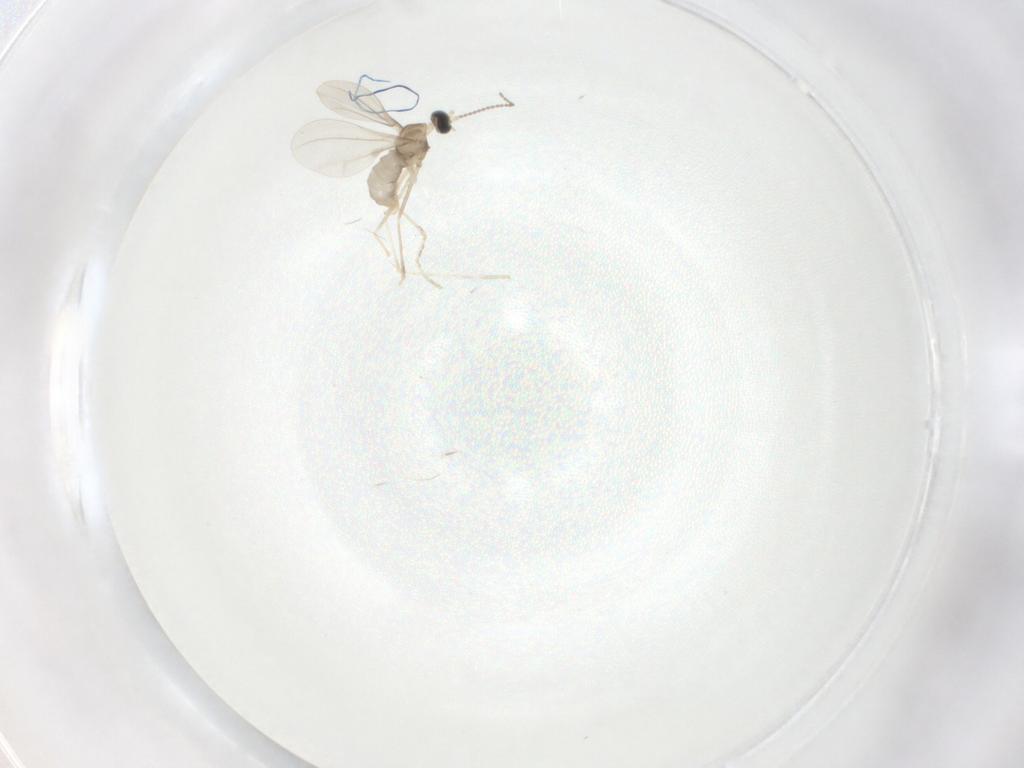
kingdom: Animalia
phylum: Arthropoda
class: Insecta
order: Diptera
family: Cecidomyiidae
